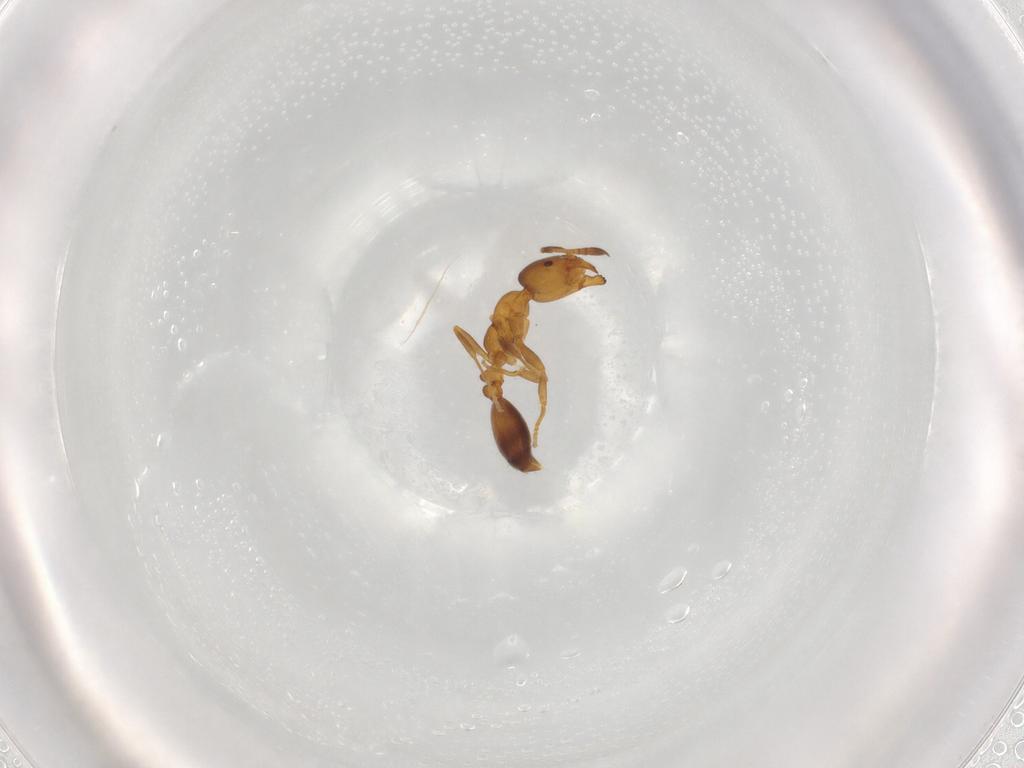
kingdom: Animalia
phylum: Arthropoda
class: Insecta
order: Hymenoptera
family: Formicidae
